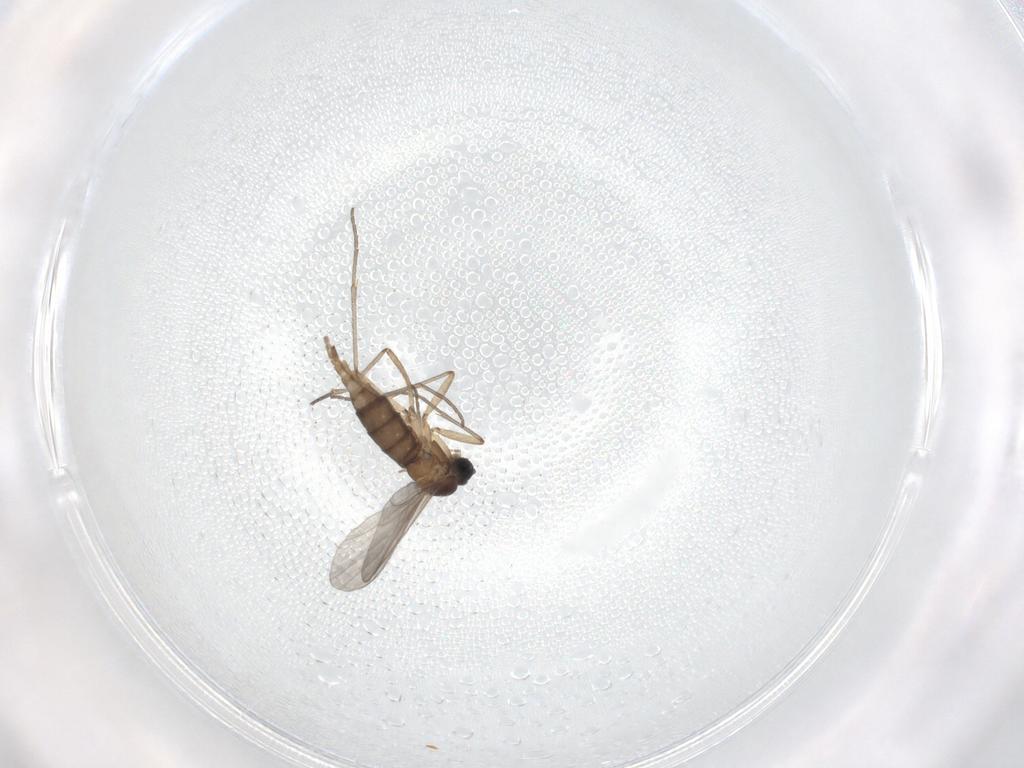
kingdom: Animalia
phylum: Arthropoda
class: Insecta
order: Diptera
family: Sciaridae
